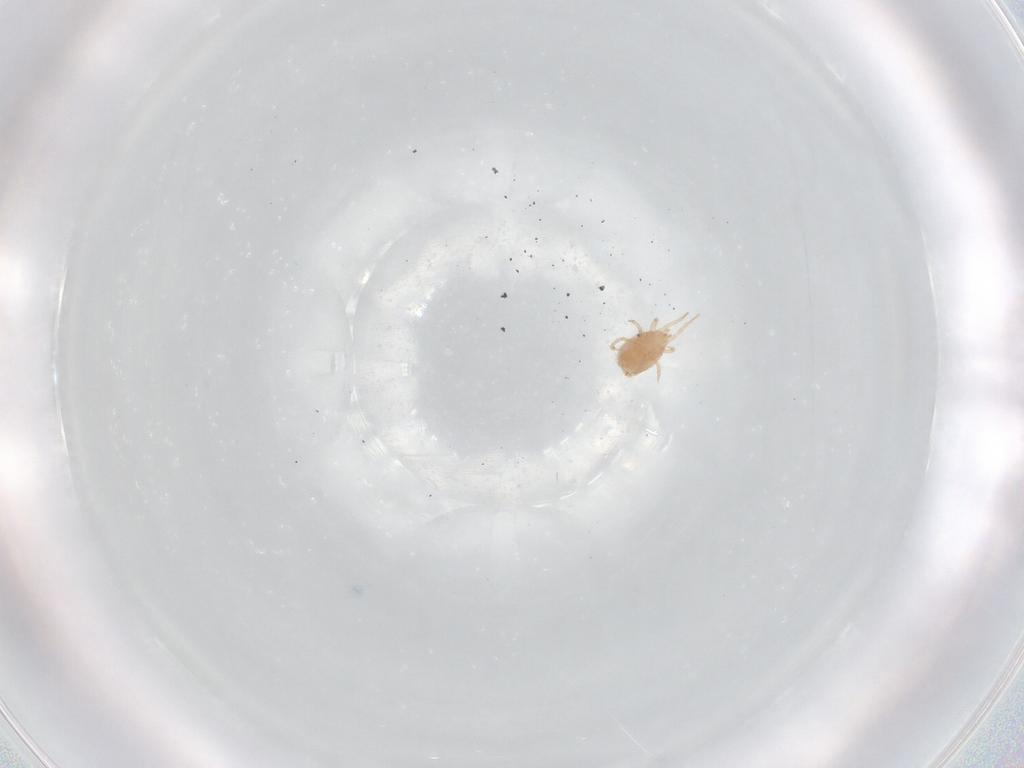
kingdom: Animalia
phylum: Arthropoda
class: Arachnida
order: Mesostigmata
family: Phytoseiidae
